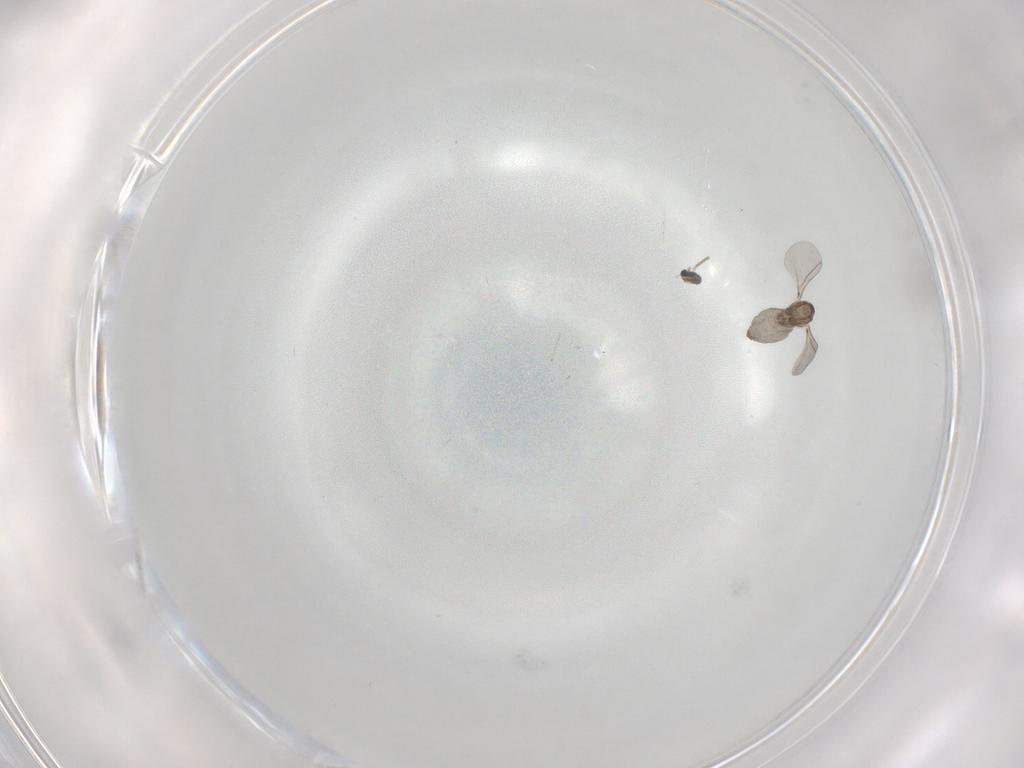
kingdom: Animalia
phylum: Arthropoda
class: Insecta
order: Diptera
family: Cecidomyiidae
